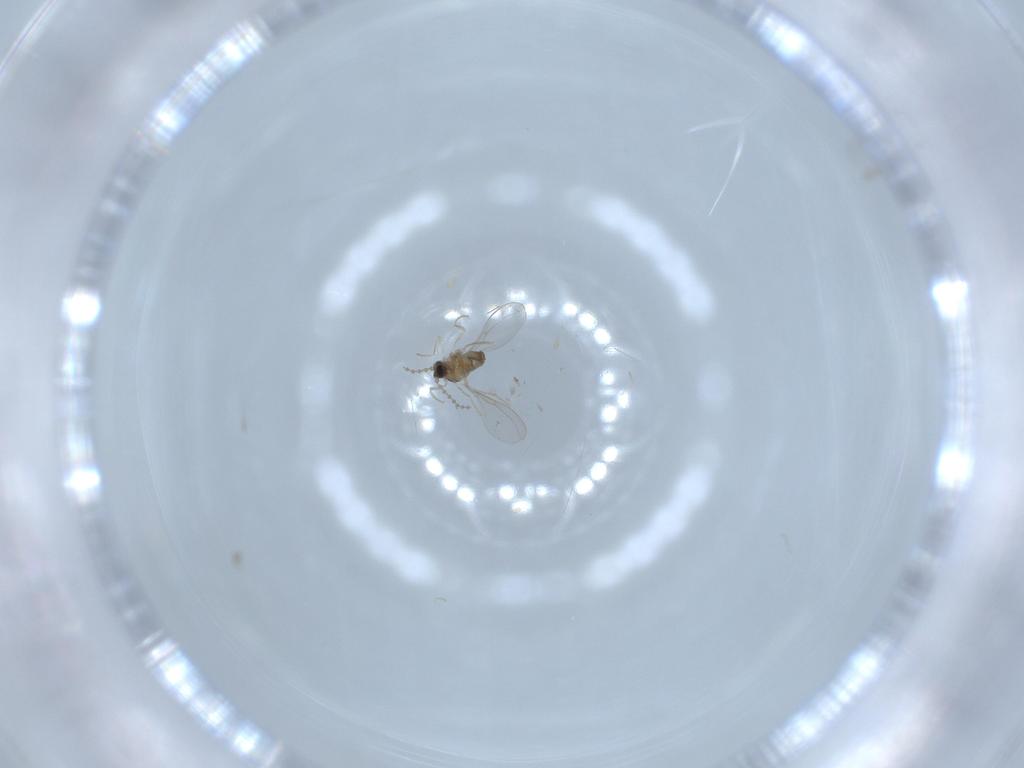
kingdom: Animalia
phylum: Arthropoda
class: Insecta
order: Diptera
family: Cecidomyiidae
